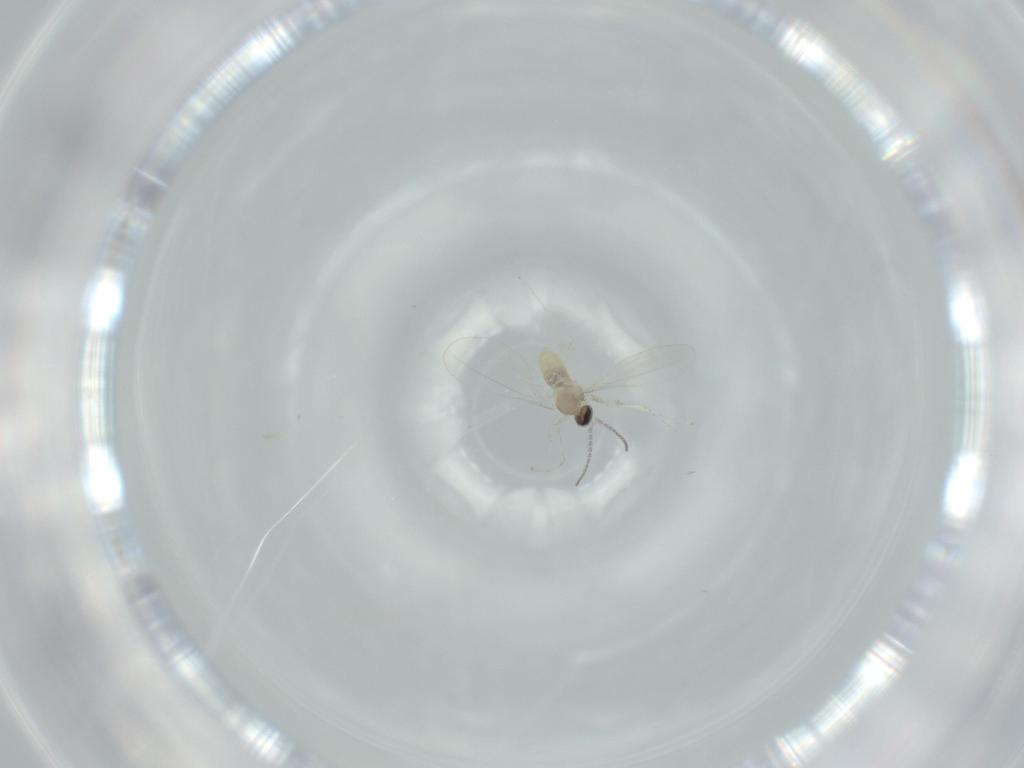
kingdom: Animalia
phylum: Arthropoda
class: Insecta
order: Diptera
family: Cecidomyiidae
